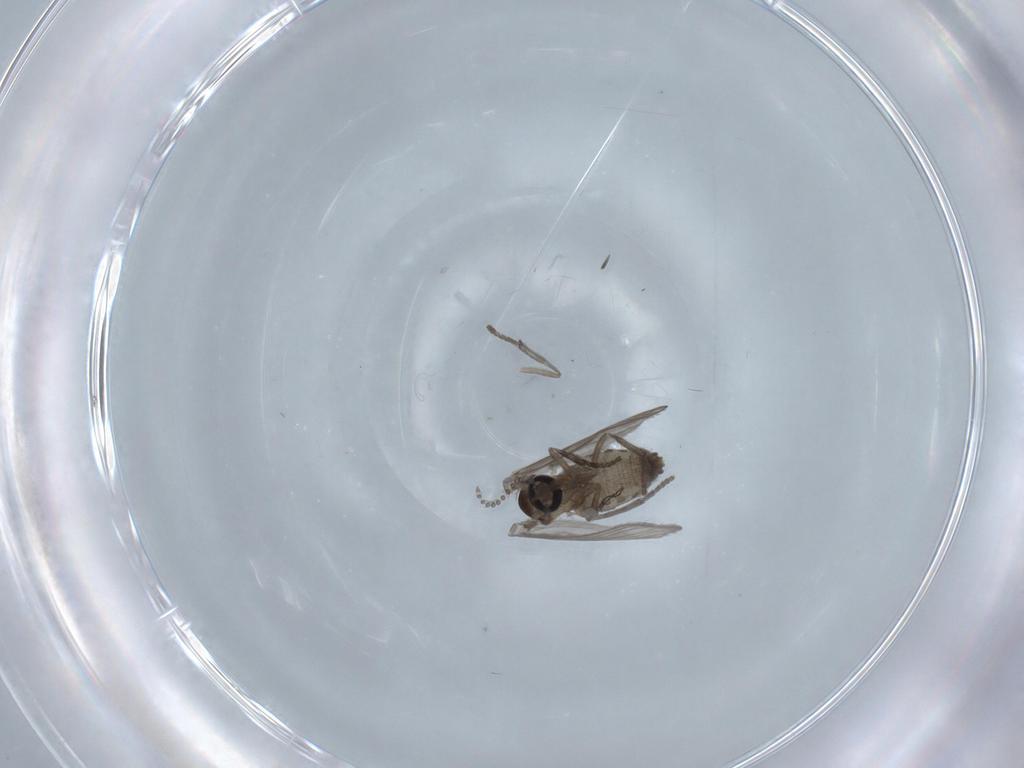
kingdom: Animalia
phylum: Arthropoda
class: Insecta
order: Diptera
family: Psychodidae
